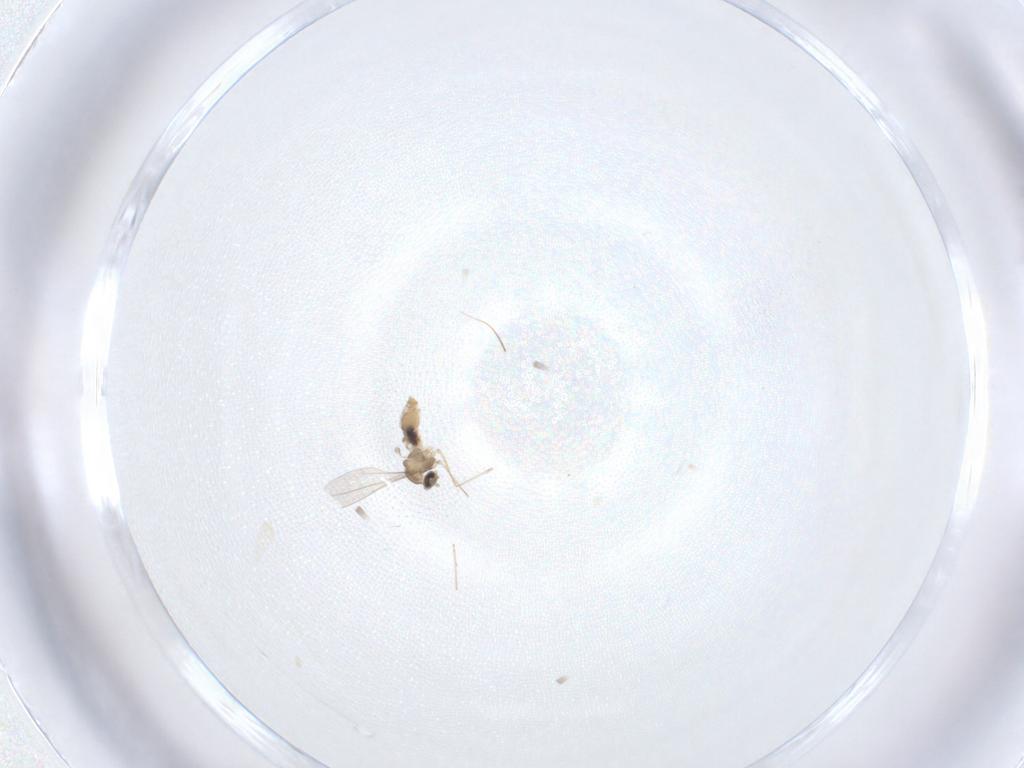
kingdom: Animalia
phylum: Arthropoda
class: Insecta
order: Diptera
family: Cecidomyiidae
